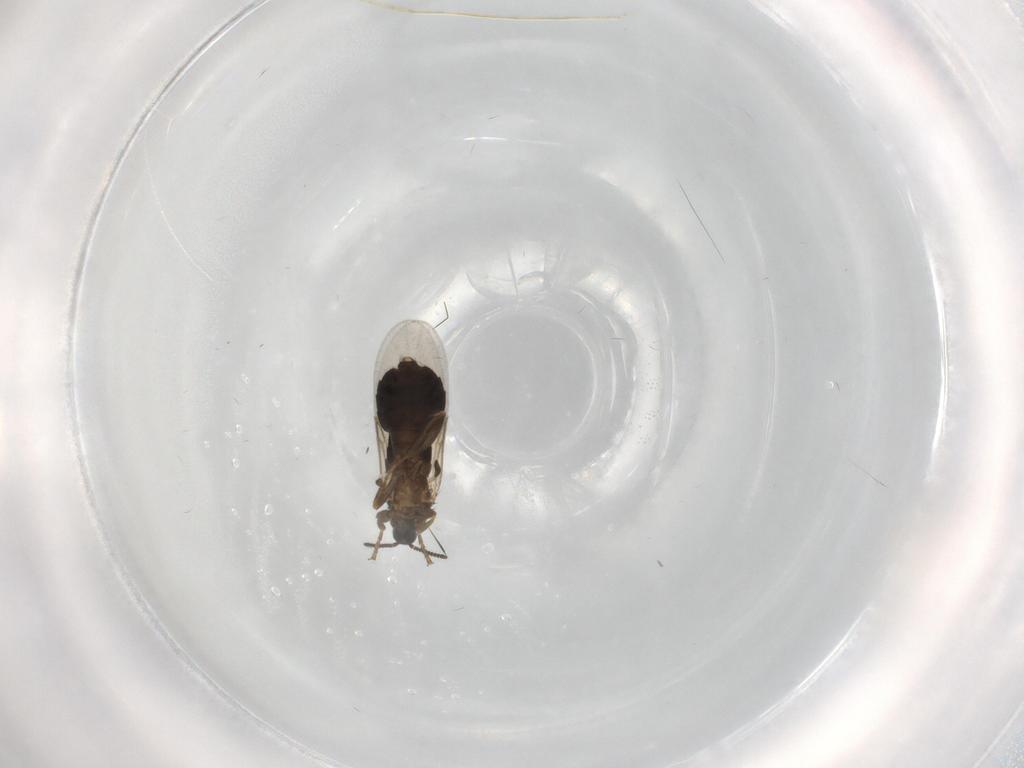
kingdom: Animalia
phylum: Arthropoda
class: Insecta
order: Diptera
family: Scatopsidae
